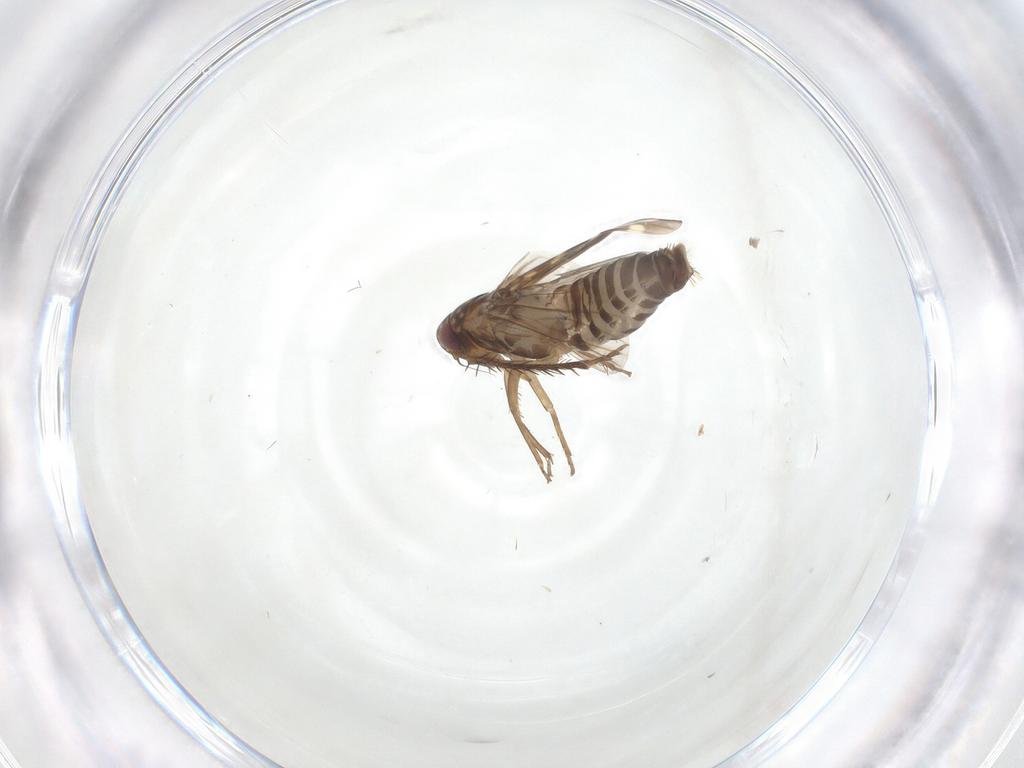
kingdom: Animalia
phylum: Arthropoda
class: Insecta
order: Hemiptera
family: Cicadellidae
